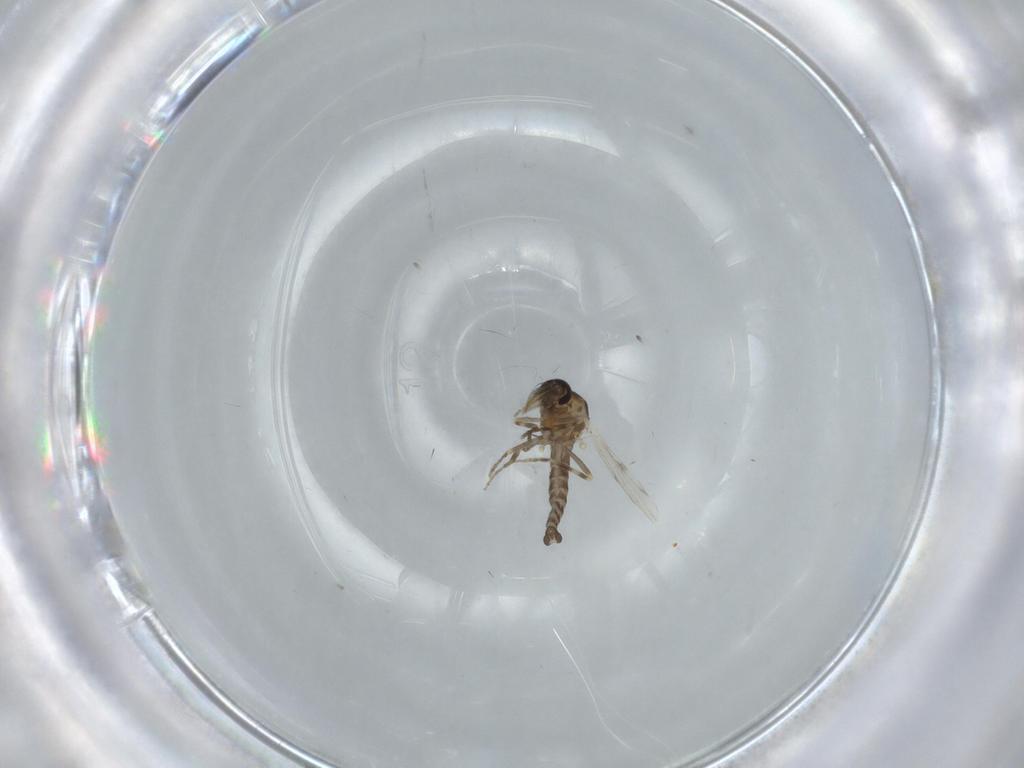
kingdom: Animalia
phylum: Arthropoda
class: Insecta
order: Diptera
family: Ceratopogonidae
